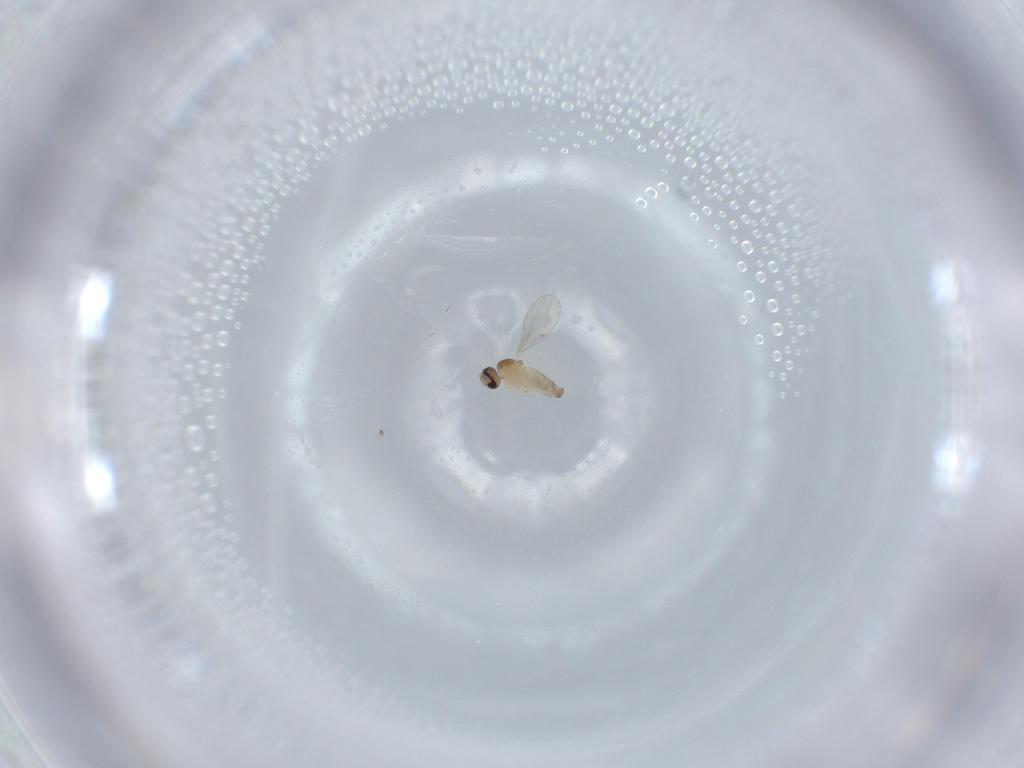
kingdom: Animalia
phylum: Arthropoda
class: Insecta
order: Diptera
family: Cecidomyiidae
